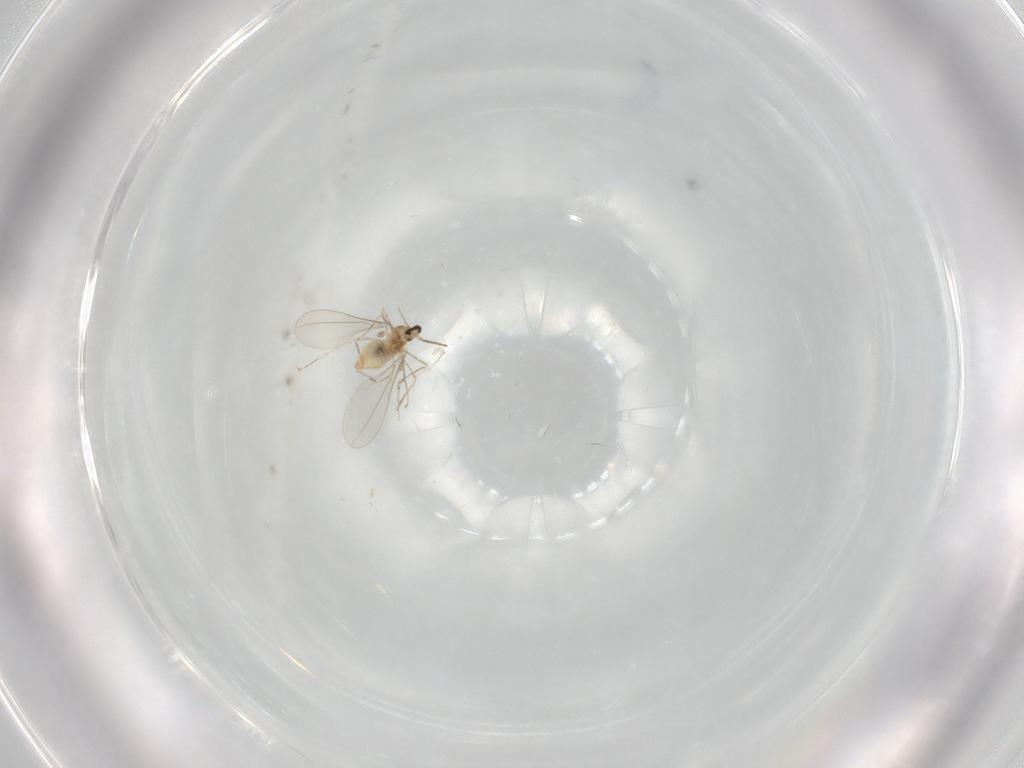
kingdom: Animalia
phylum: Arthropoda
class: Insecta
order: Diptera
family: Cecidomyiidae
